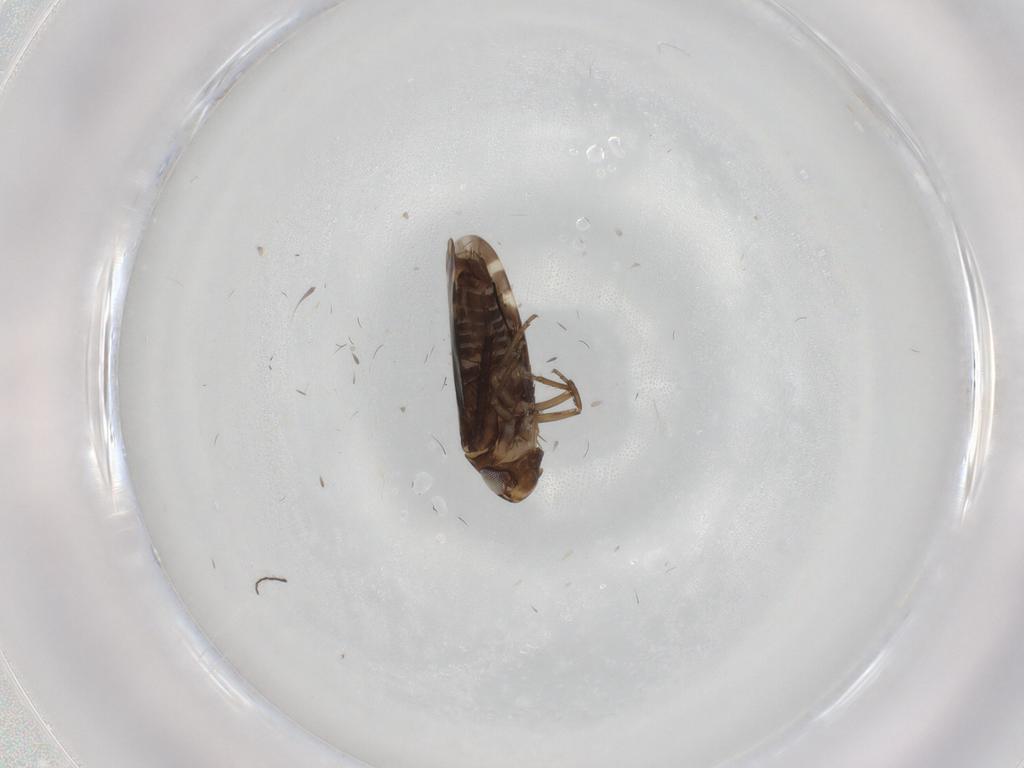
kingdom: Animalia
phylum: Arthropoda
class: Insecta
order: Hemiptera
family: Cicadellidae
